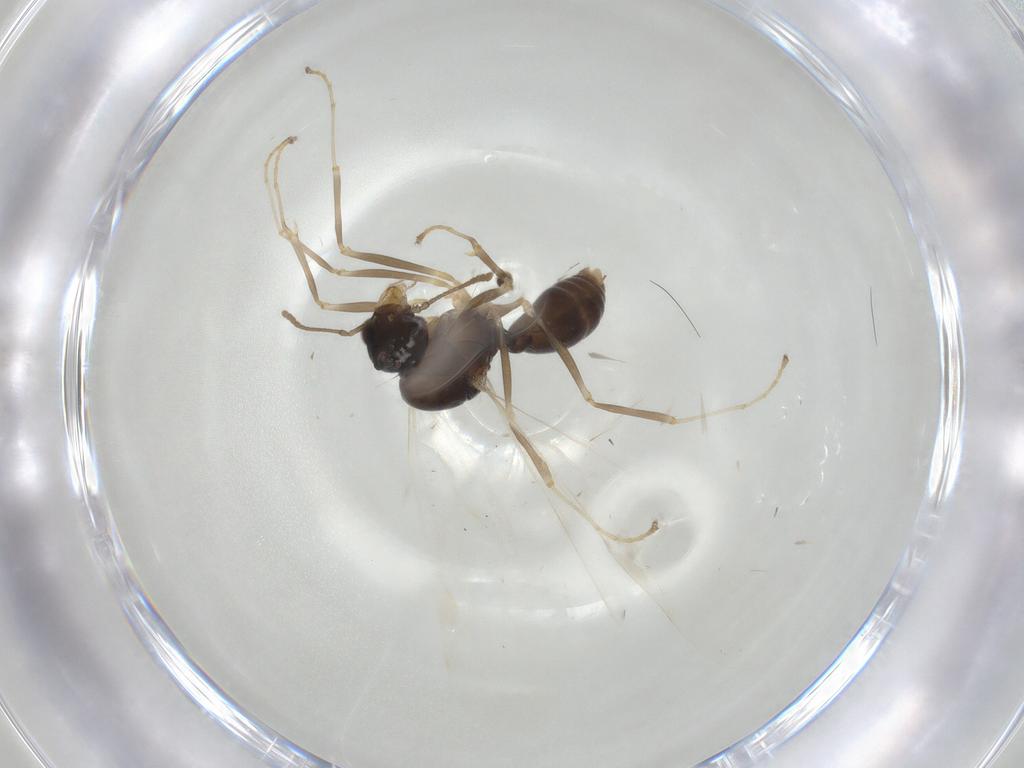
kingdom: Animalia
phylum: Arthropoda
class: Insecta
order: Hymenoptera
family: Formicidae
